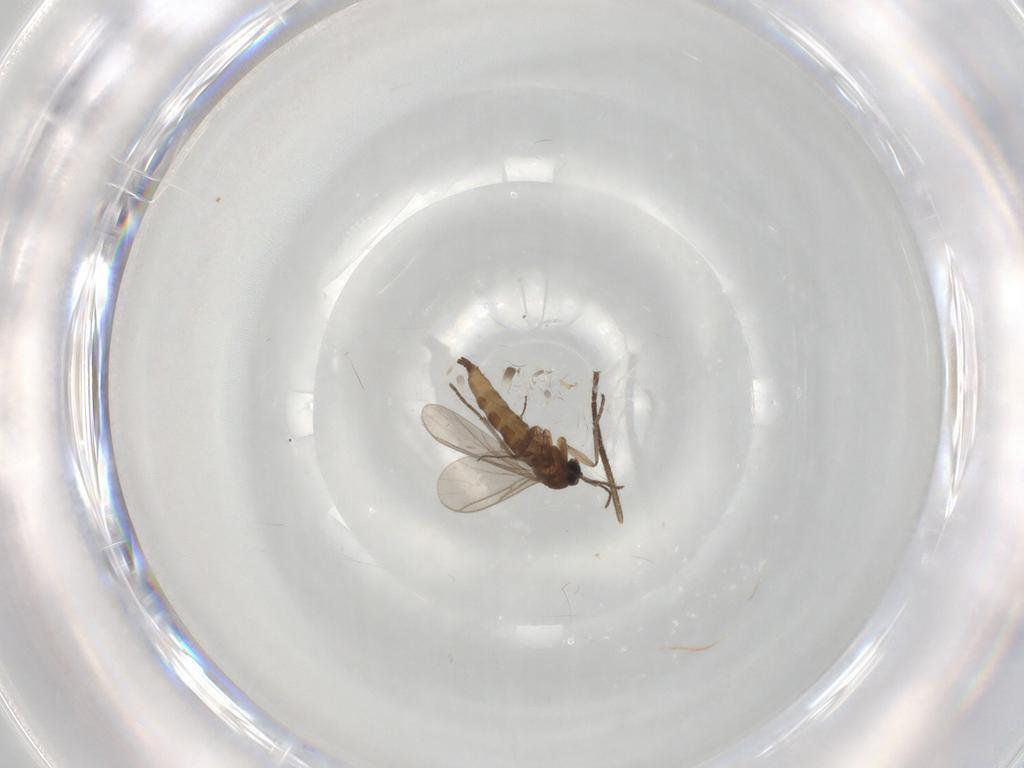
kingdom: Animalia
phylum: Arthropoda
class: Insecta
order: Diptera
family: Sciaridae
